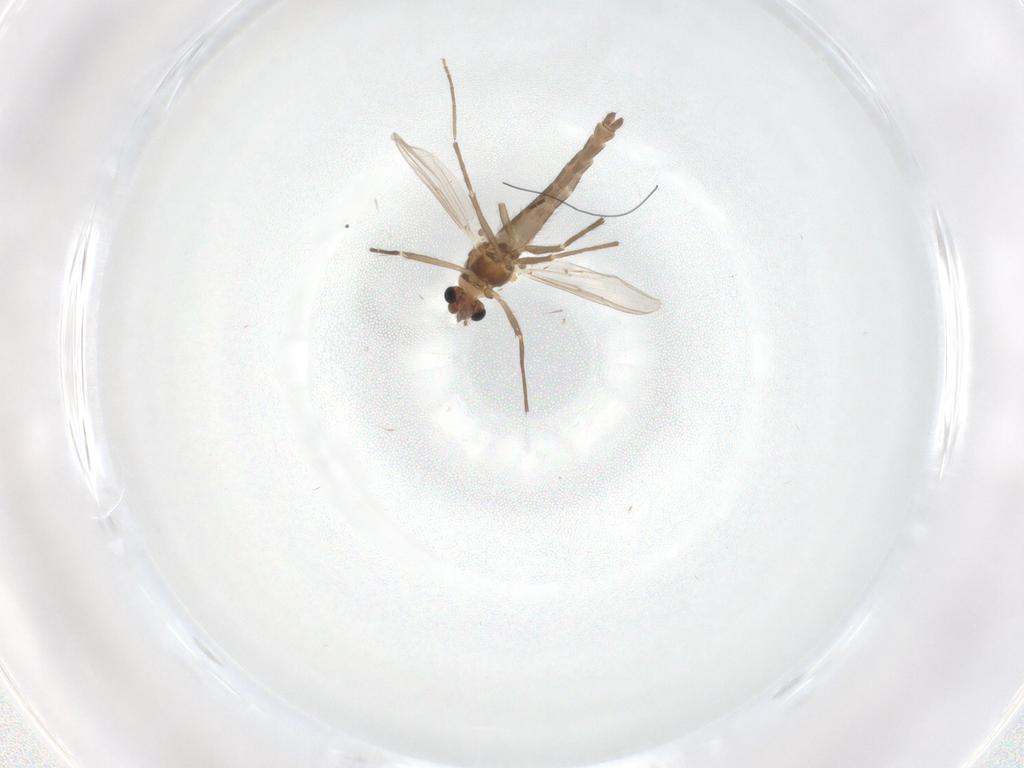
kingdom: Animalia
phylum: Arthropoda
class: Insecta
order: Diptera
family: Chironomidae
